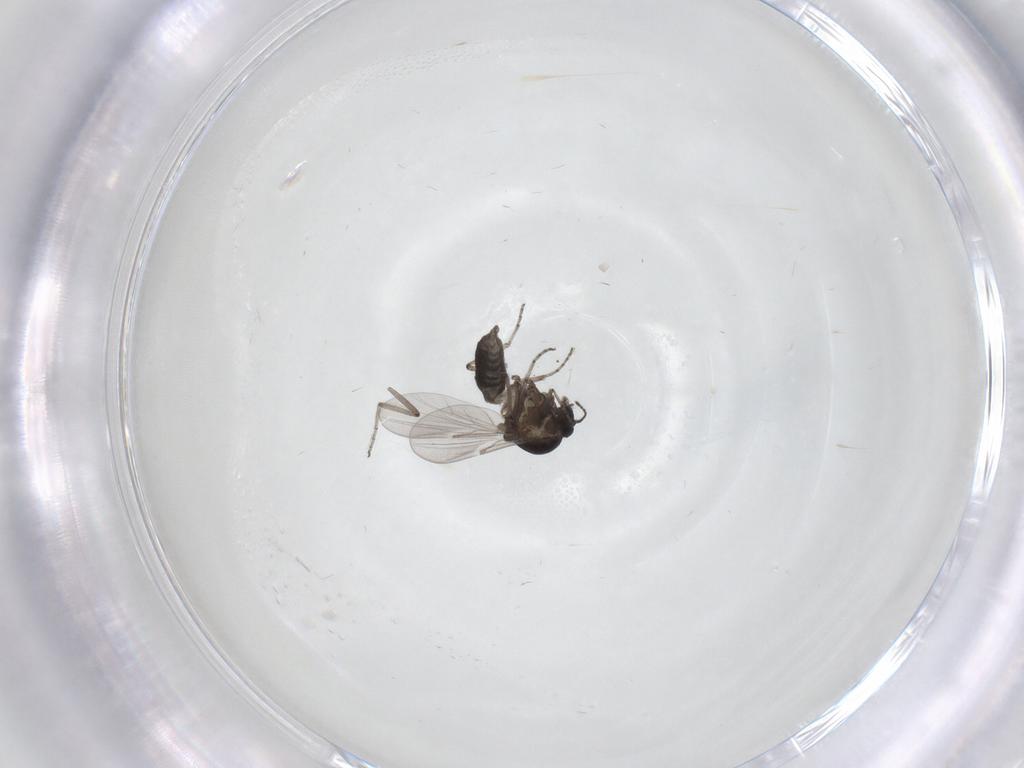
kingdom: Animalia
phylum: Arthropoda
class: Insecta
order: Diptera
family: Ceratopogonidae
